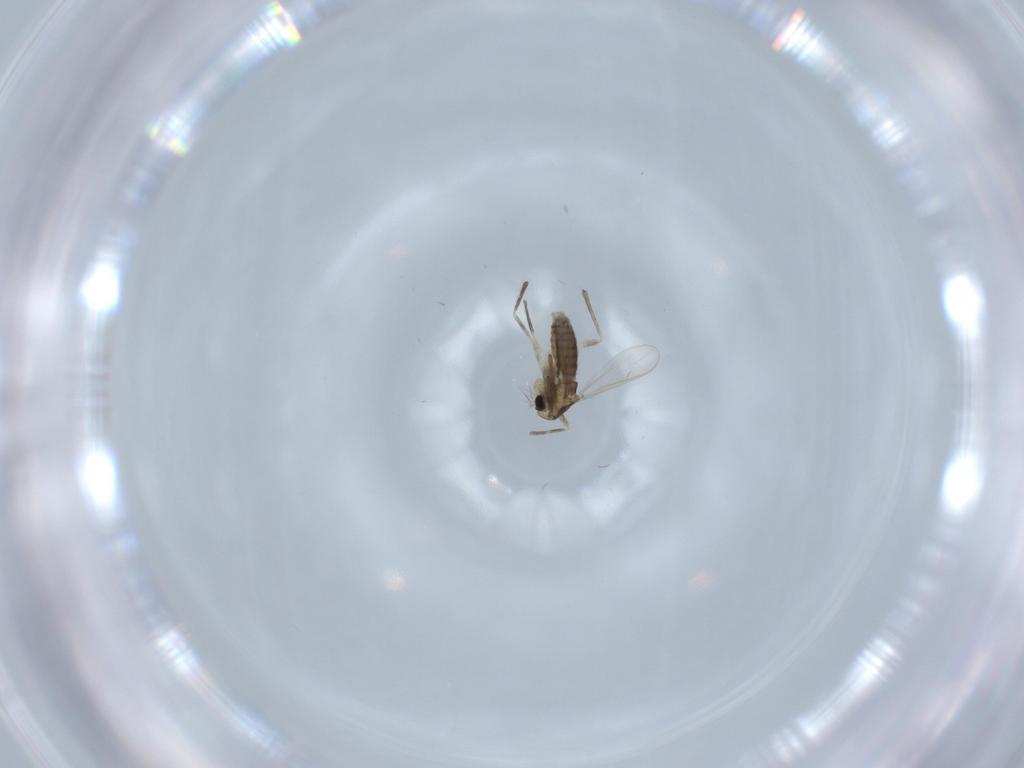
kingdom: Animalia
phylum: Arthropoda
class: Insecta
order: Diptera
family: Chironomidae
